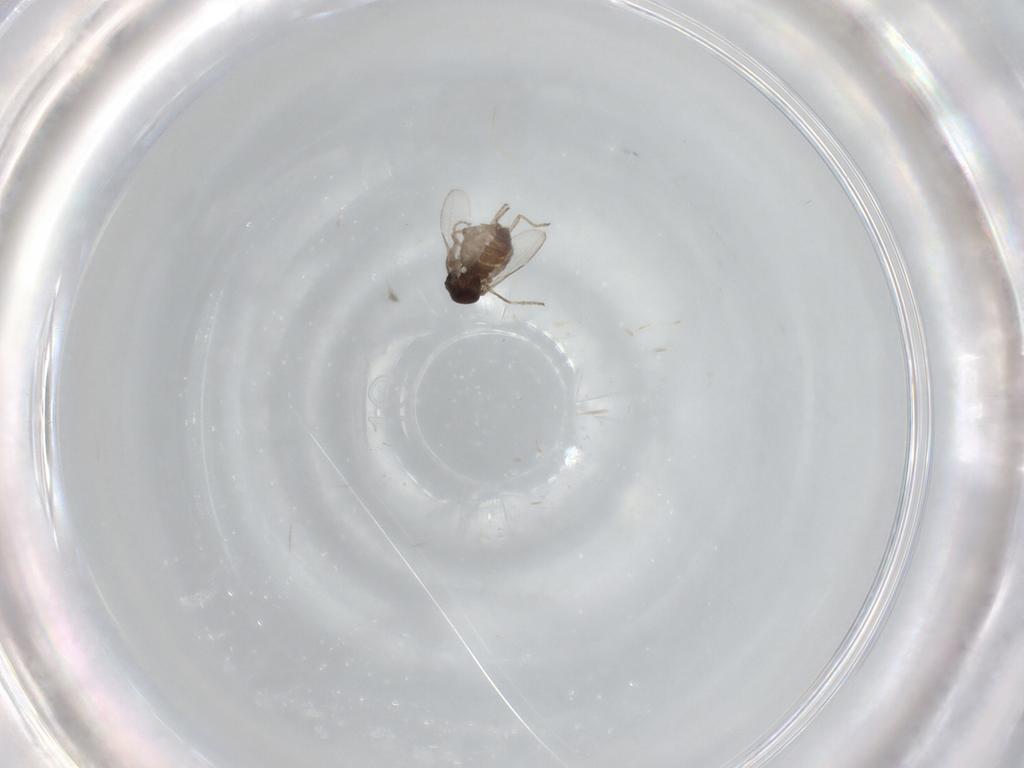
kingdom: Animalia
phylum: Arthropoda
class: Insecta
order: Diptera
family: Ceratopogonidae
